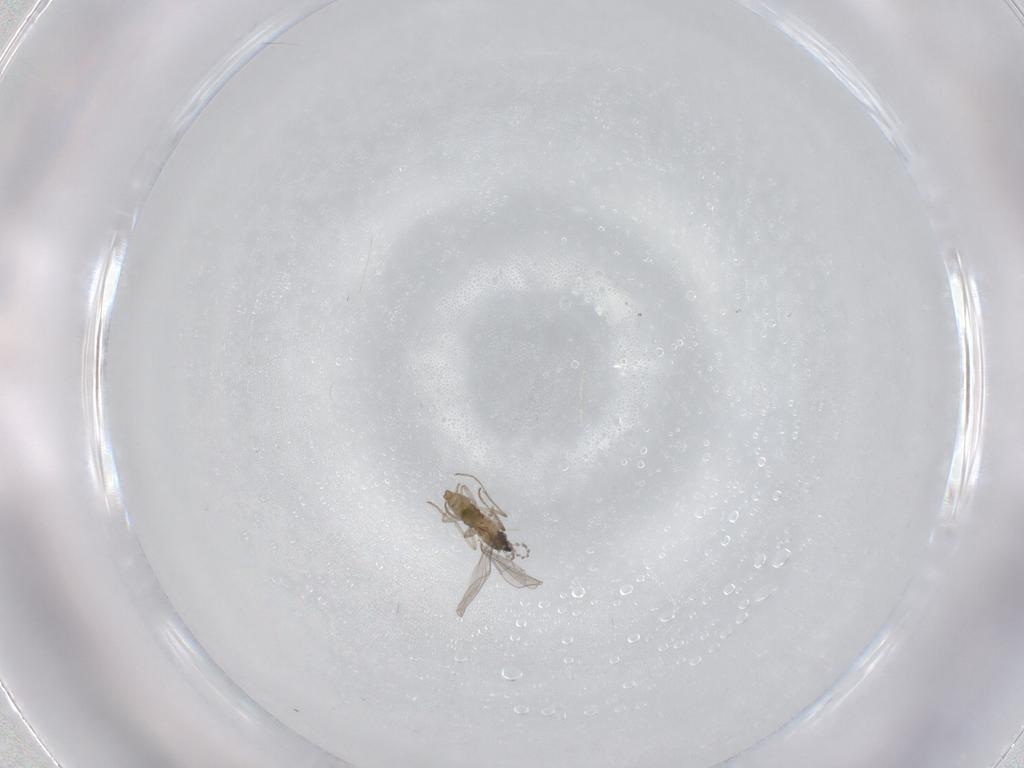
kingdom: Animalia
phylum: Arthropoda
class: Insecta
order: Diptera
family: Cecidomyiidae
